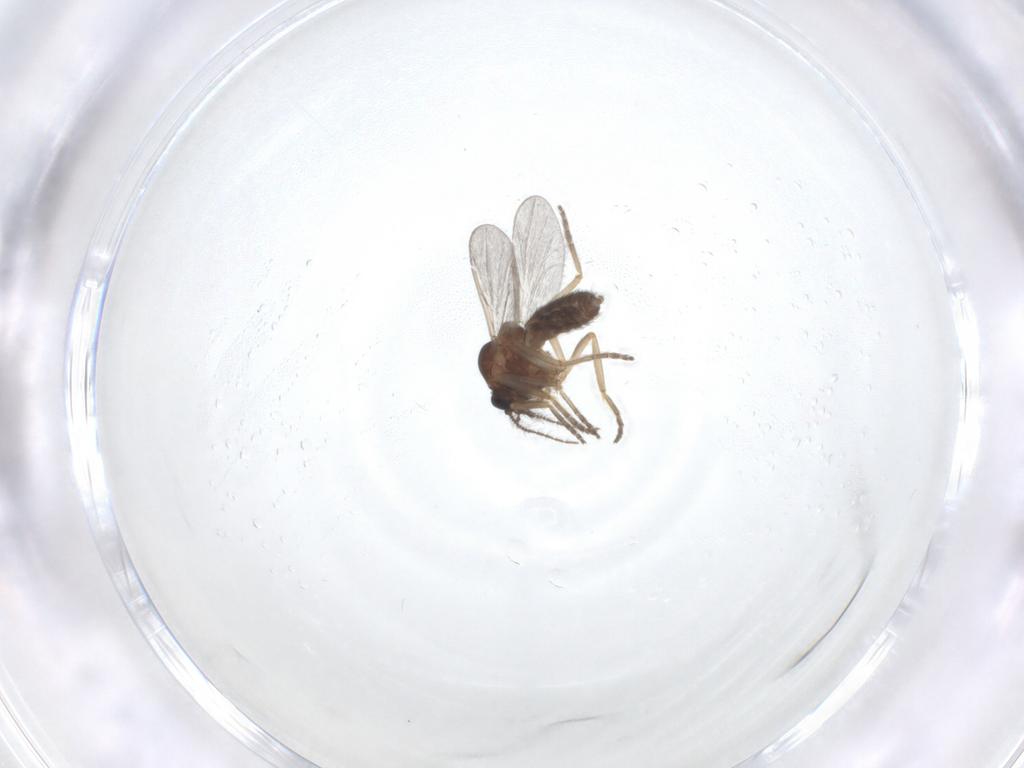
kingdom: Animalia
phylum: Arthropoda
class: Insecta
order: Diptera
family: Ceratopogonidae
